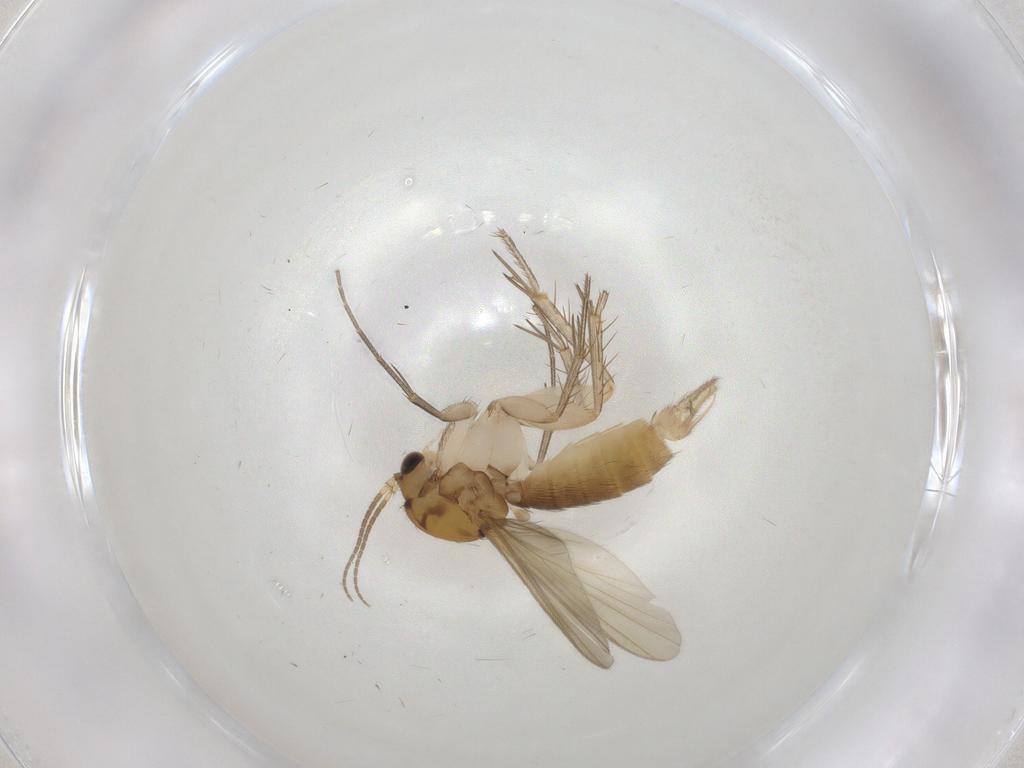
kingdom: Animalia
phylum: Arthropoda
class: Insecta
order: Diptera
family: Mycetophilidae
